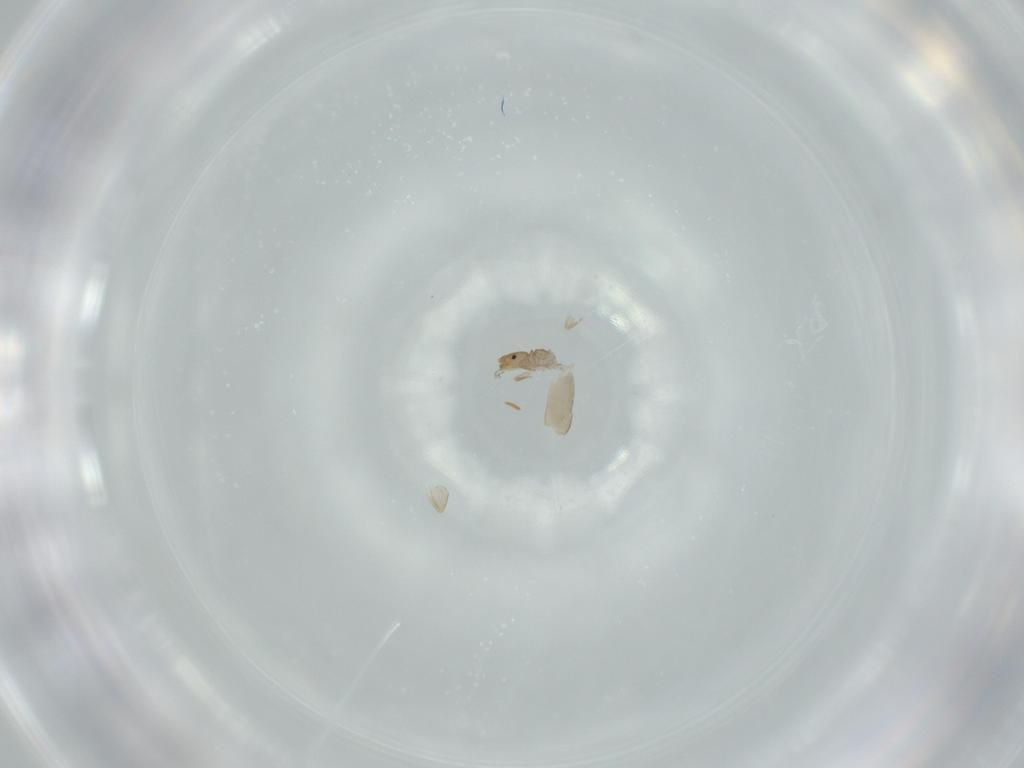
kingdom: Animalia
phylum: Arthropoda
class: Insecta
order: Psocodea
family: Liposcelididae
